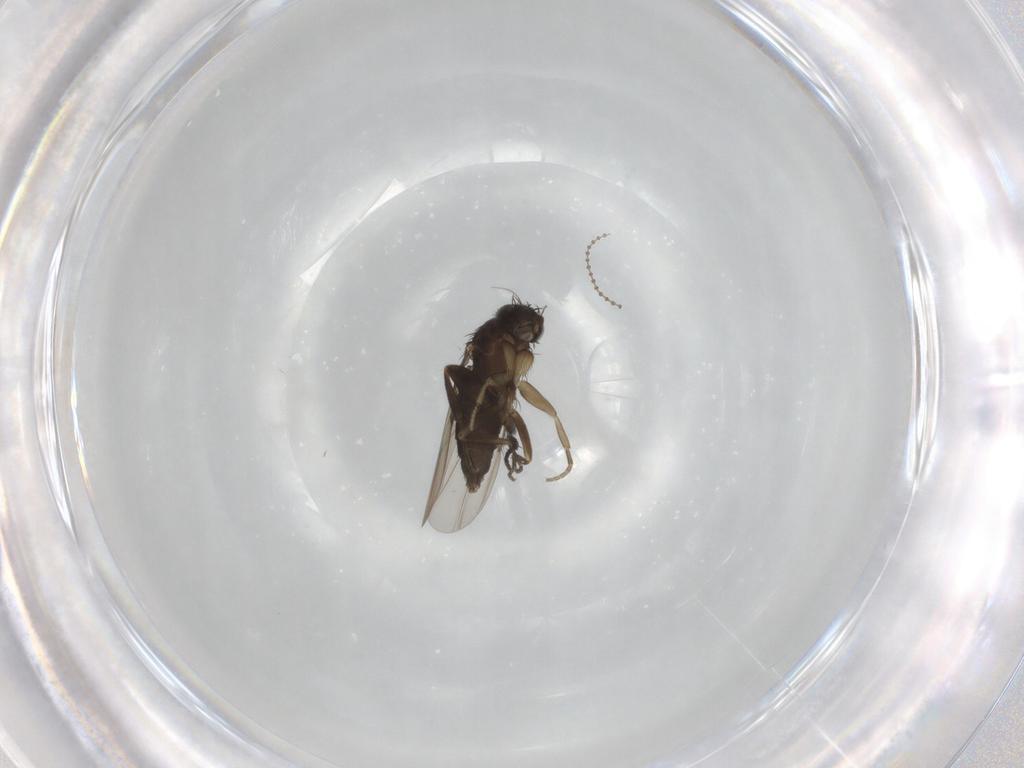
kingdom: Animalia
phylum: Arthropoda
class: Insecta
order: Diptera
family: Phoridae
